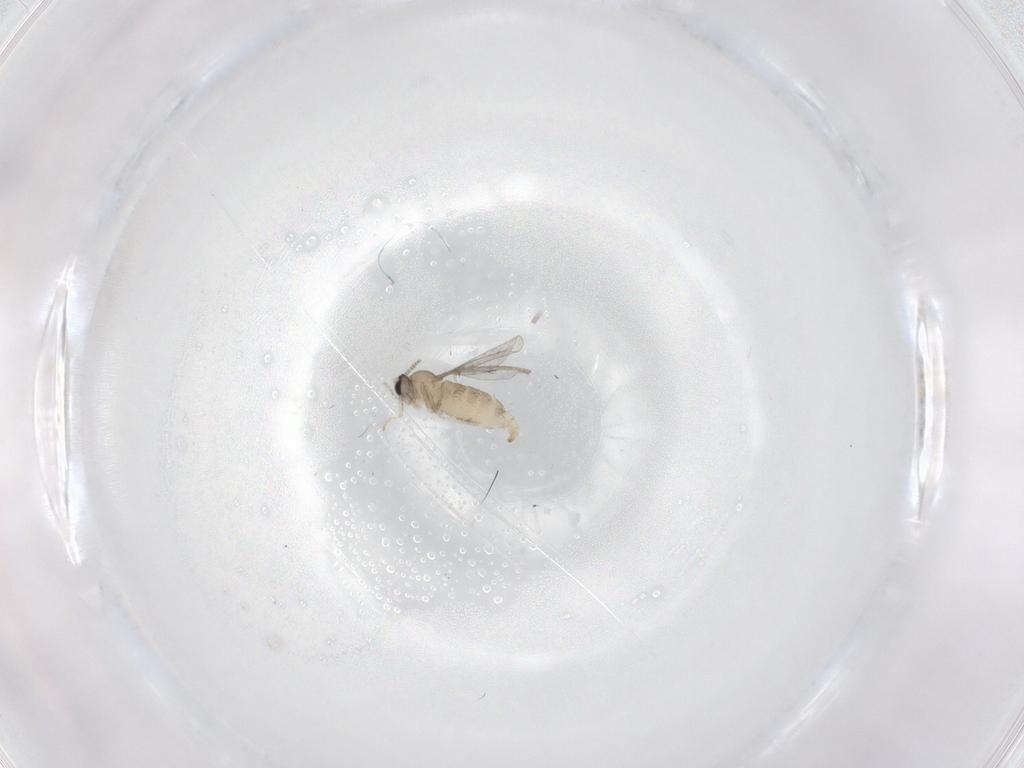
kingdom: Animalia
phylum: Arthropoda
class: Insecta
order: Diptera
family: Cecidomyiidae
